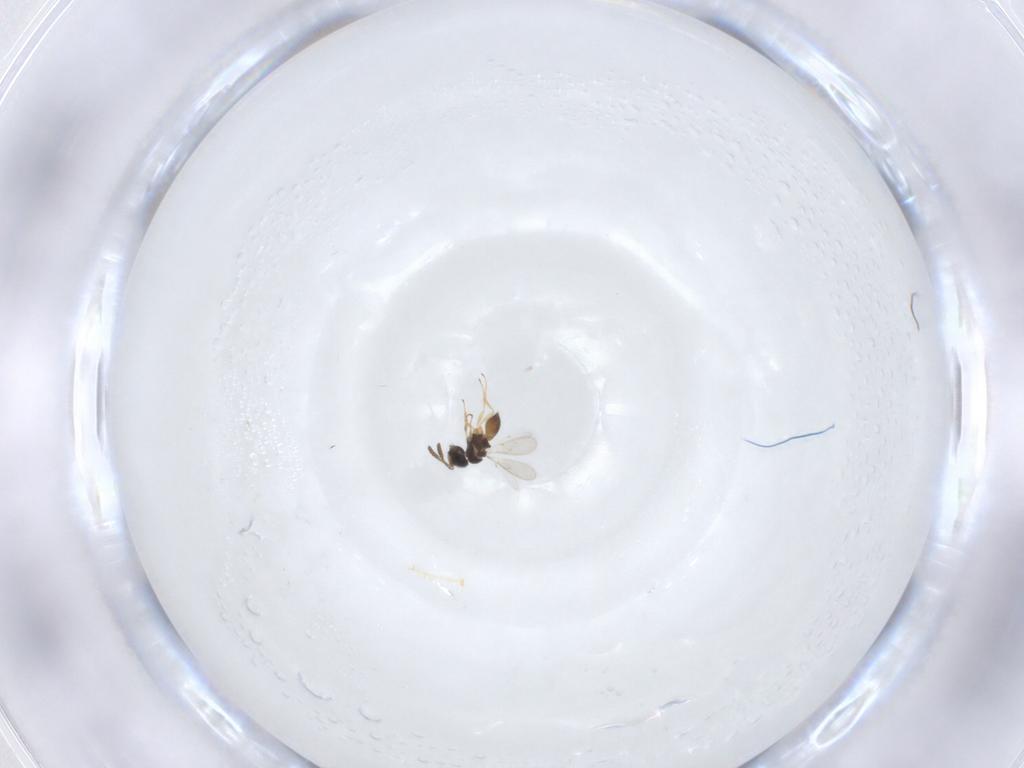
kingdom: Animalia
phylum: Arthropoda
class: Insecta
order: Hymenoptera
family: Scelionidae
